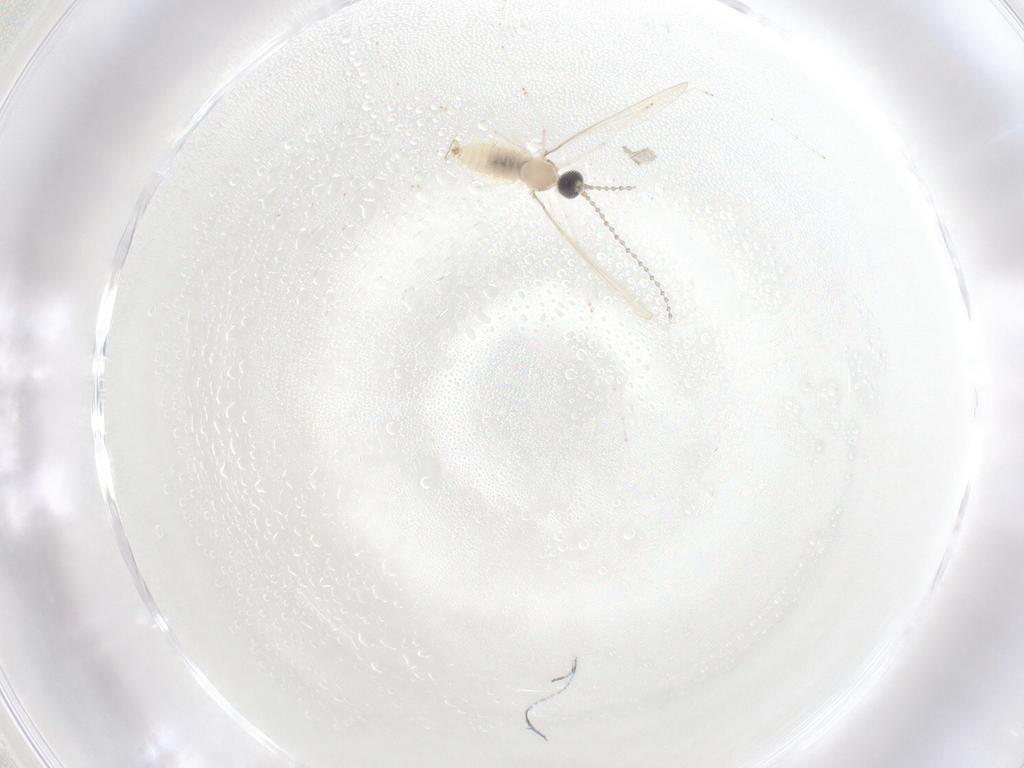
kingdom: Animalia
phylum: Arthropoda
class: Insecta
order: Diptera
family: Cecidomyiidae
